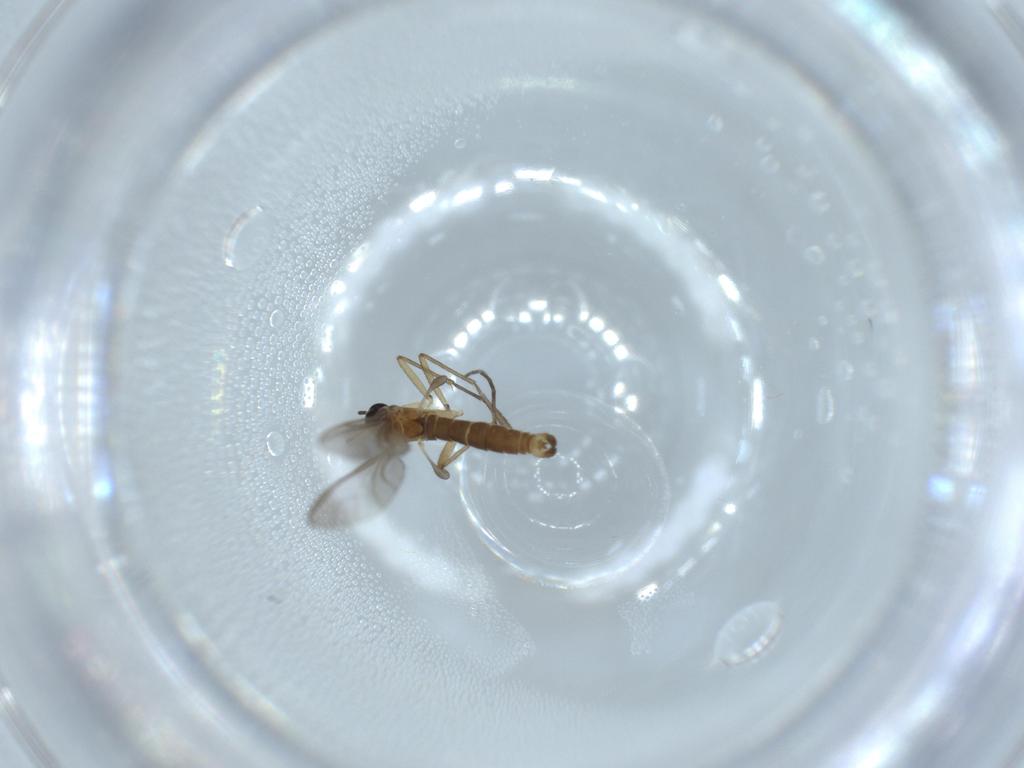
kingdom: Animalia
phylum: Arthropoda
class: Insecta
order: Diptera
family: Sciaridae
